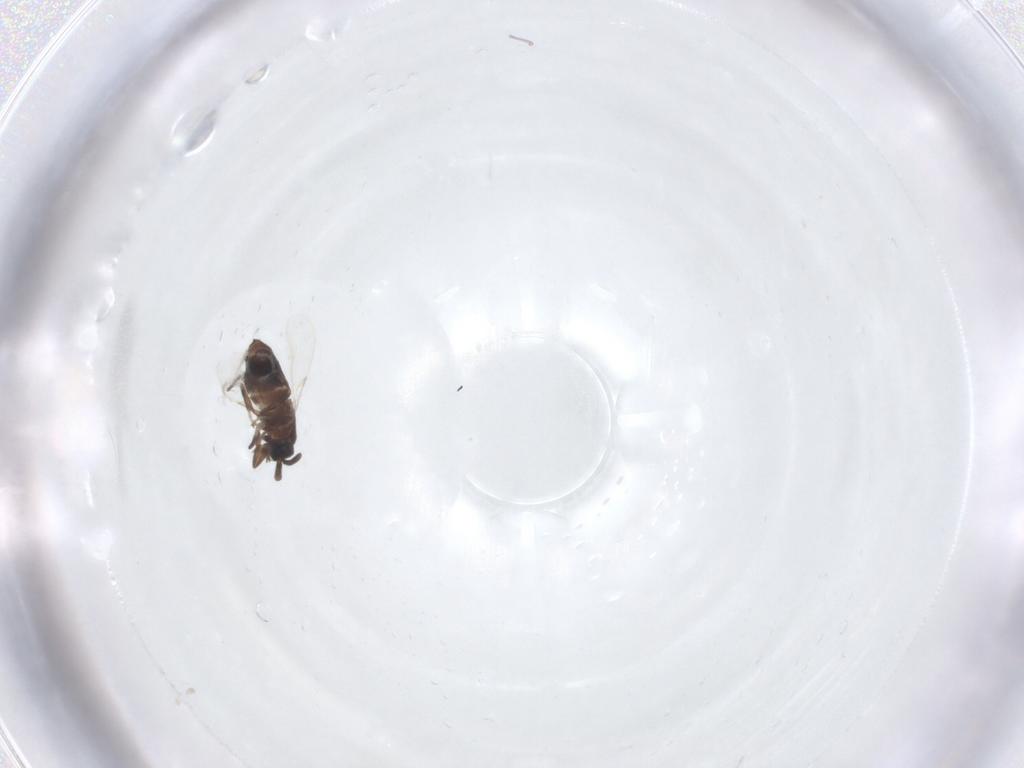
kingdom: Animalia
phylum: Arthropoda
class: Insecta
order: Diptera
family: Scatopsidae
